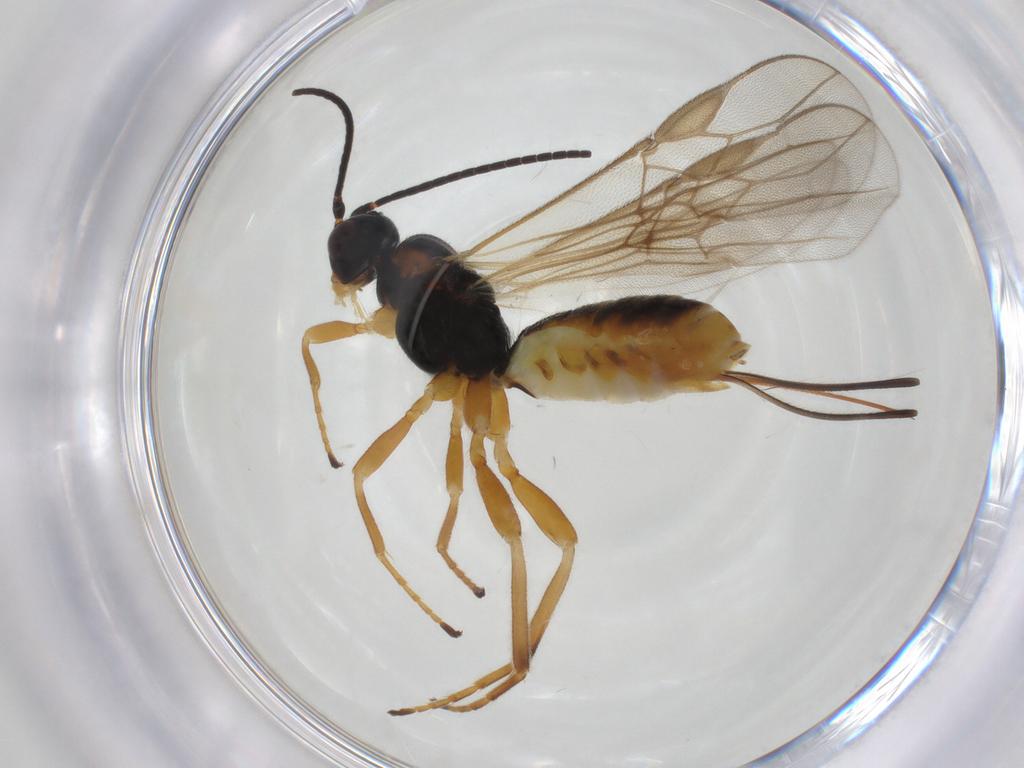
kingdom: Animalia
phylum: Arthropoda
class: Insecta
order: Hymenoptera
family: Braconidae
